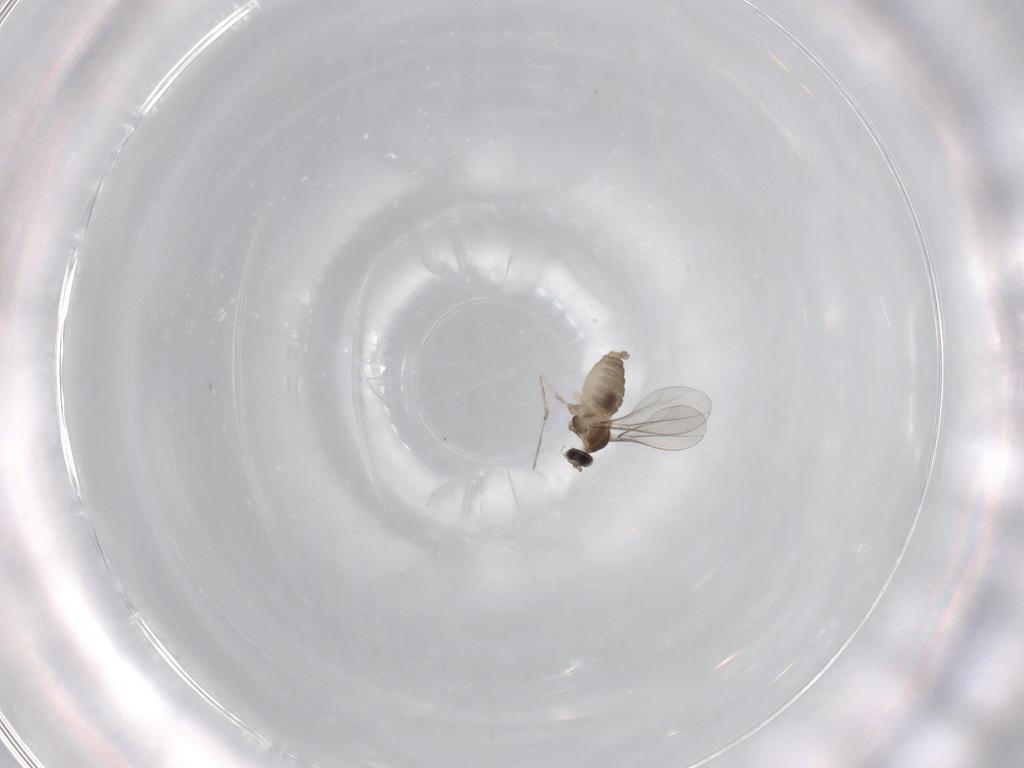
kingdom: Animalia
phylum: Arthropoda
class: Insecta
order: Diptera
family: Cecidomyiidae
